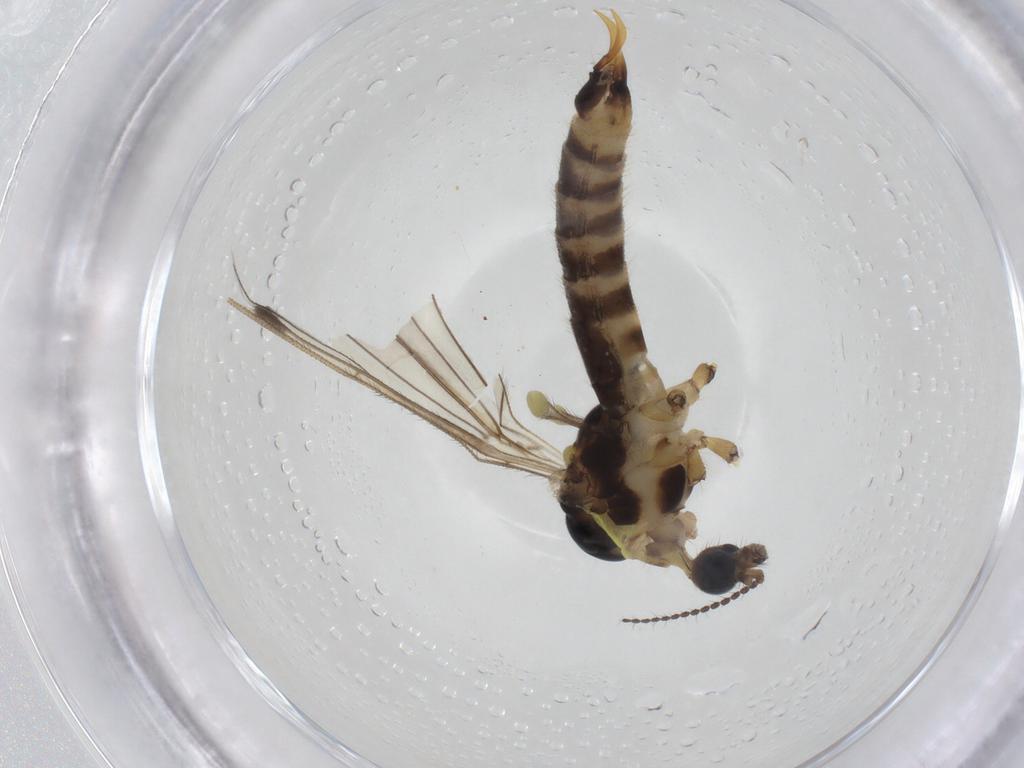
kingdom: Animalia
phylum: Arthropoda
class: Insecta
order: Diptera
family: Limoniidae
